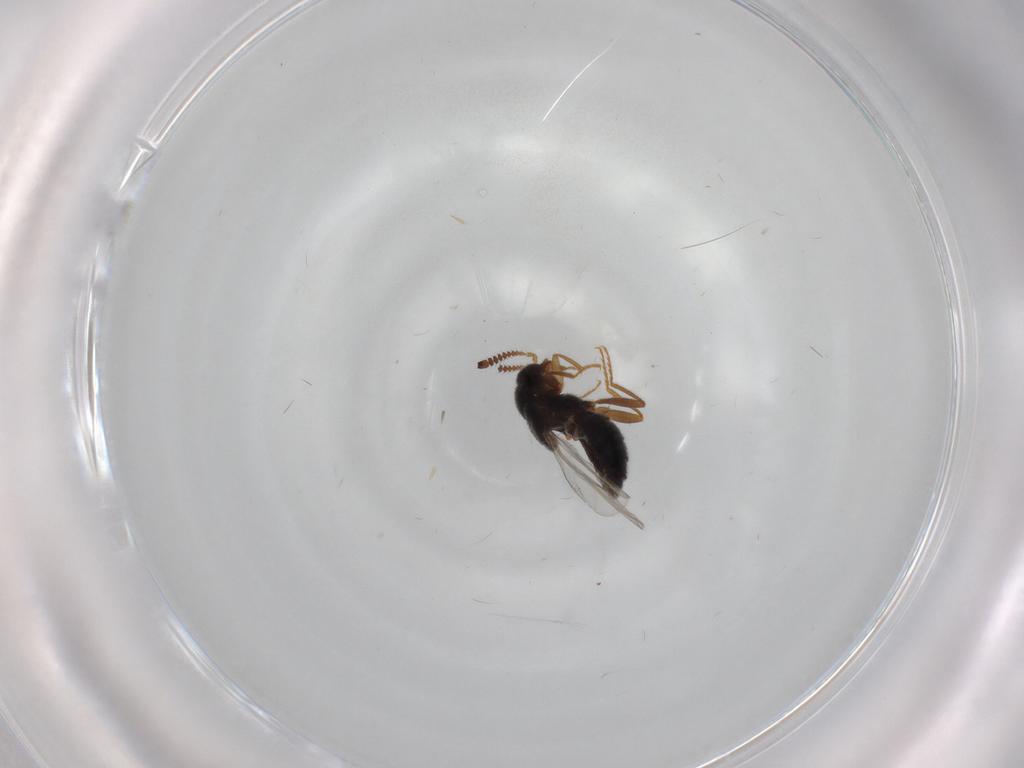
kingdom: Animalia
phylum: Arthropoda
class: Insecta
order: Coleoptera
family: Staphylinidae
